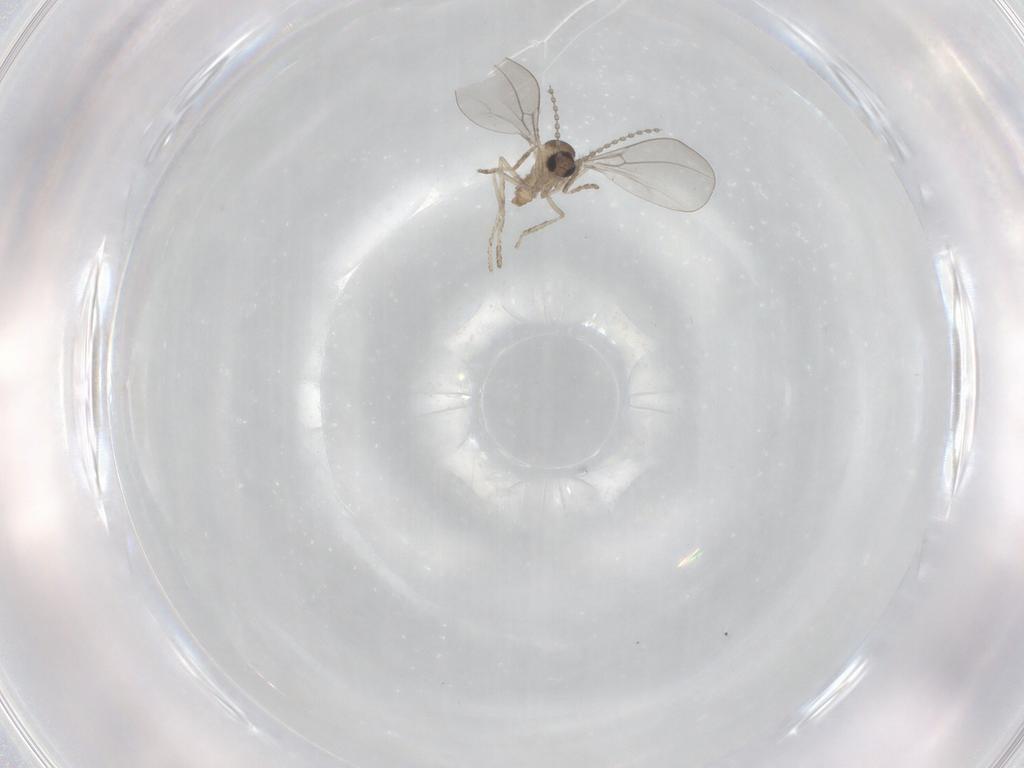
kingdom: Animalia
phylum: Arthropoda
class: Insecta
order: Diptera
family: Cecidomyiidae
